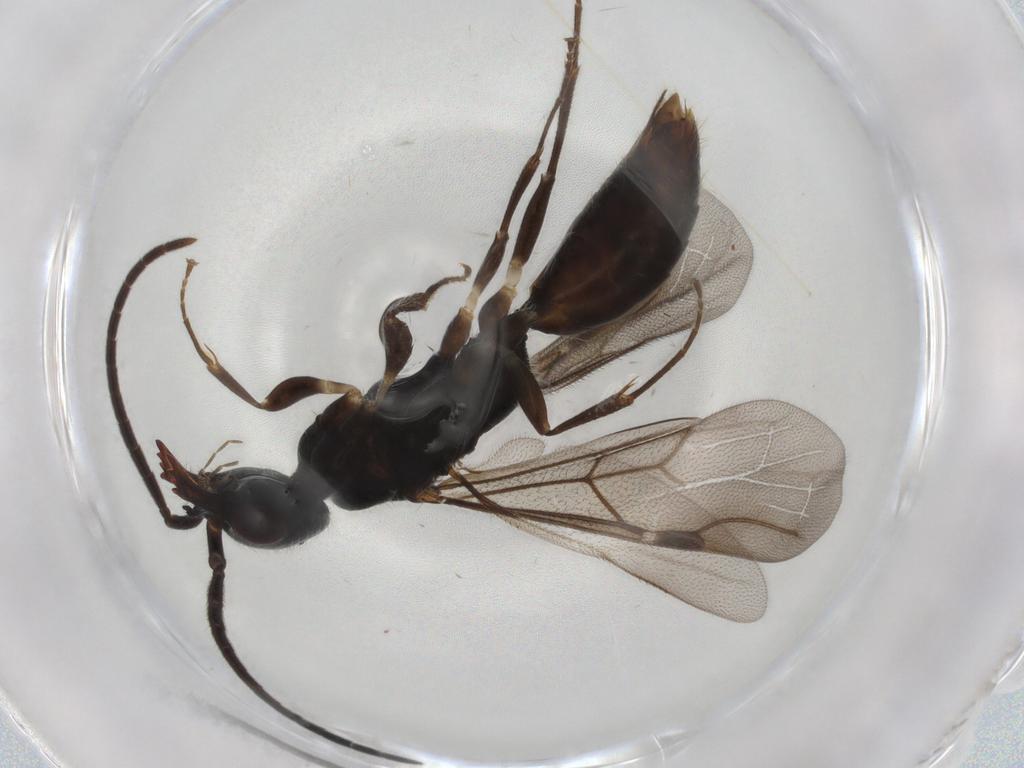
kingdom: Animalia
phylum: Arthropoda
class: Insecta
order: Hymenoptera
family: Bethylidae
